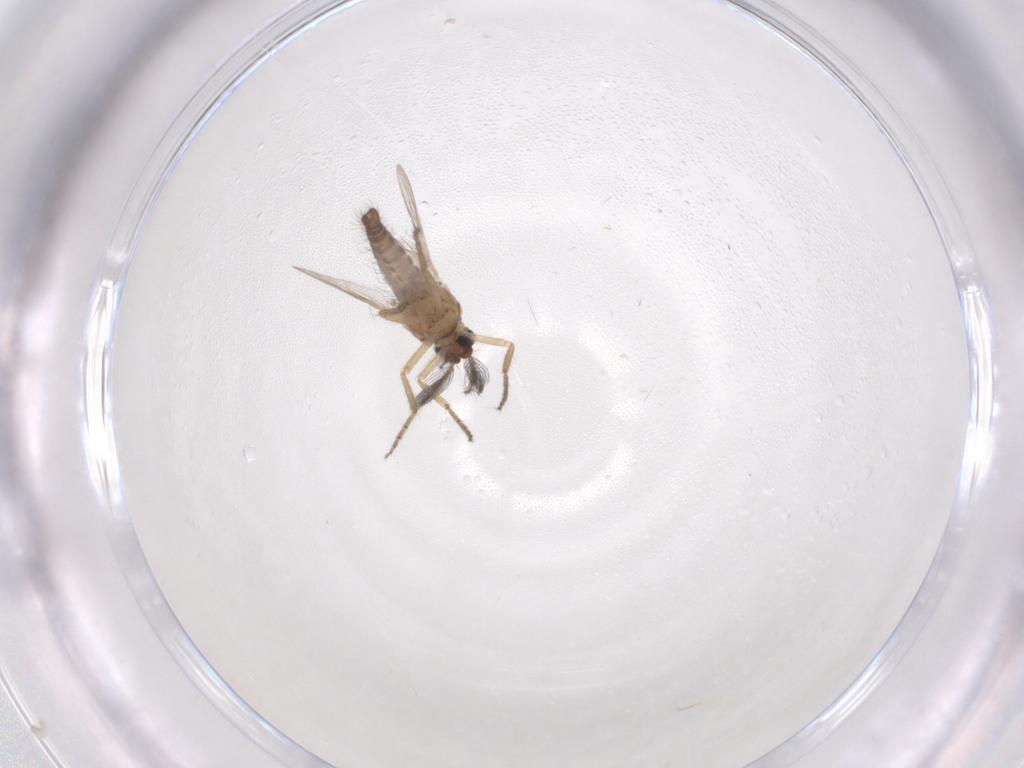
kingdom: Animalia
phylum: Arthropoda
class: Insecta
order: Diptera
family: Ceratopogonidae
